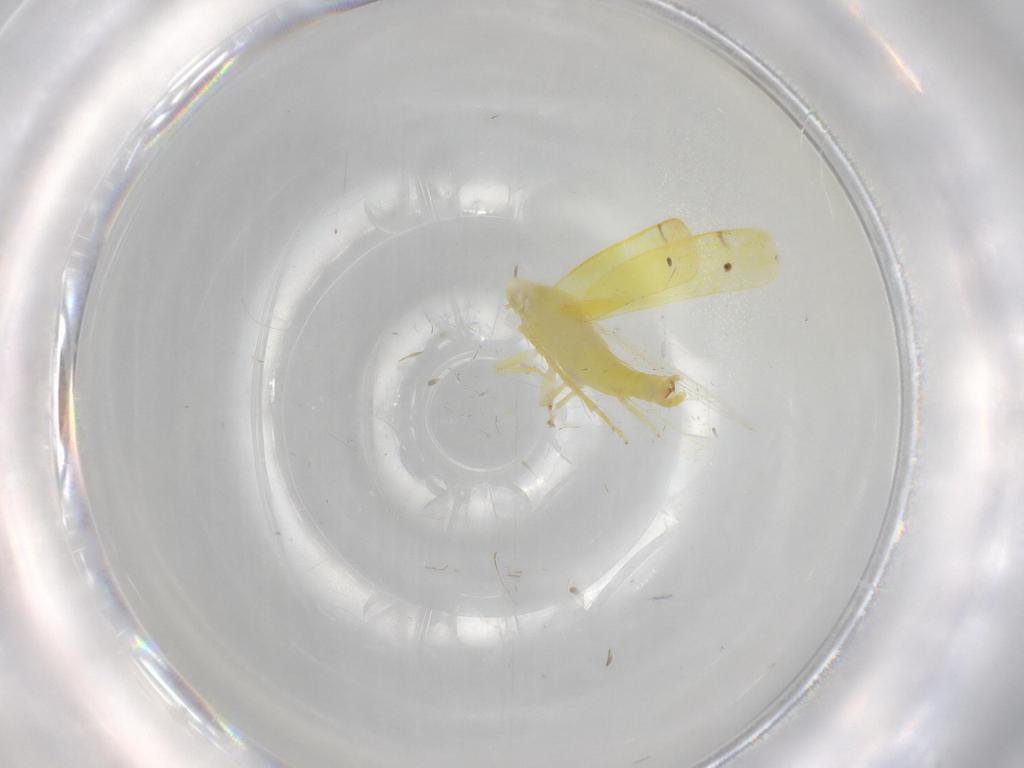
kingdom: Animalia
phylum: Arthropoda
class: Insecta
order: Hemiptera
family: Cicadellidae
